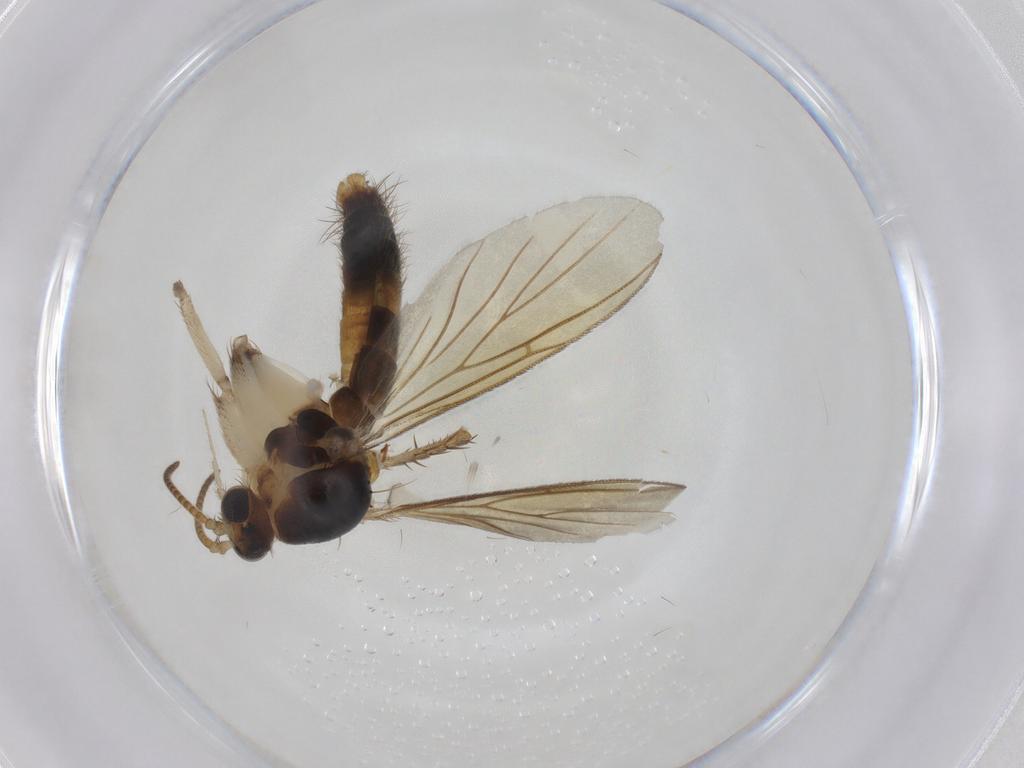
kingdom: Animalia
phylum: Arthropoda
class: Insecta
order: Diptera
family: Mycetophilidae
